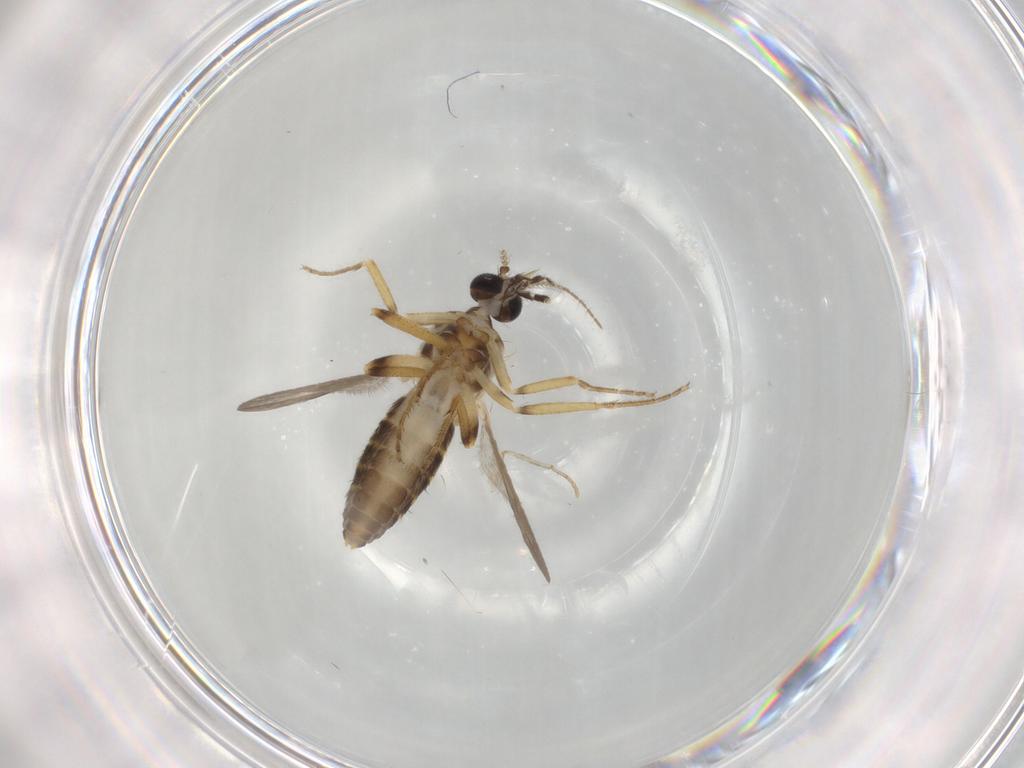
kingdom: Animalia
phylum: Arthropoda
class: Insecta
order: Diptera
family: Ceratopogonidae
